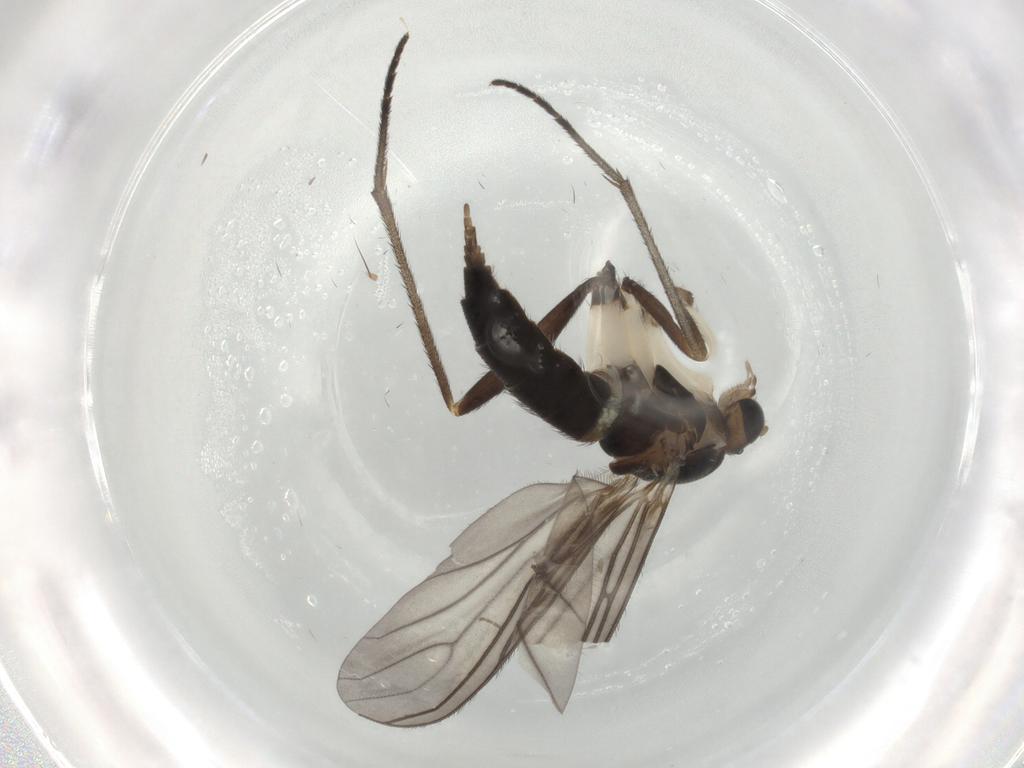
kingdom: Animalia
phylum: Arthropoda
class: Insecta
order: Diptera
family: Sciaridae
